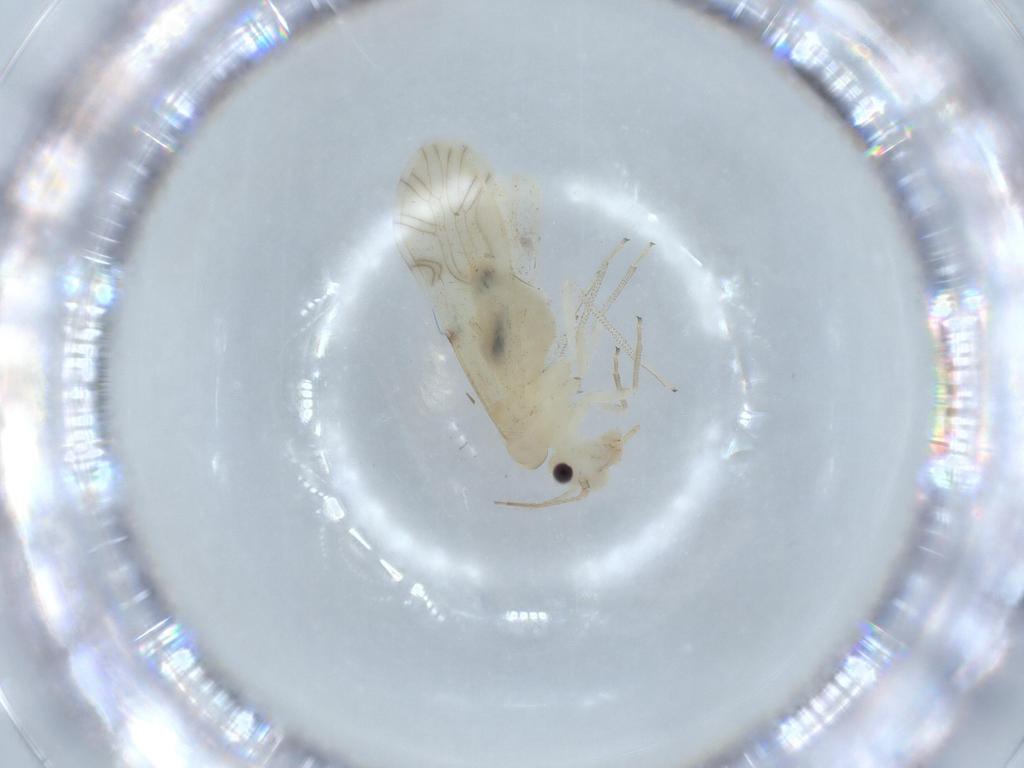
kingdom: Animalia
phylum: Arthropoda
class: Insecta
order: Psocodea
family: Caeciliusidae
